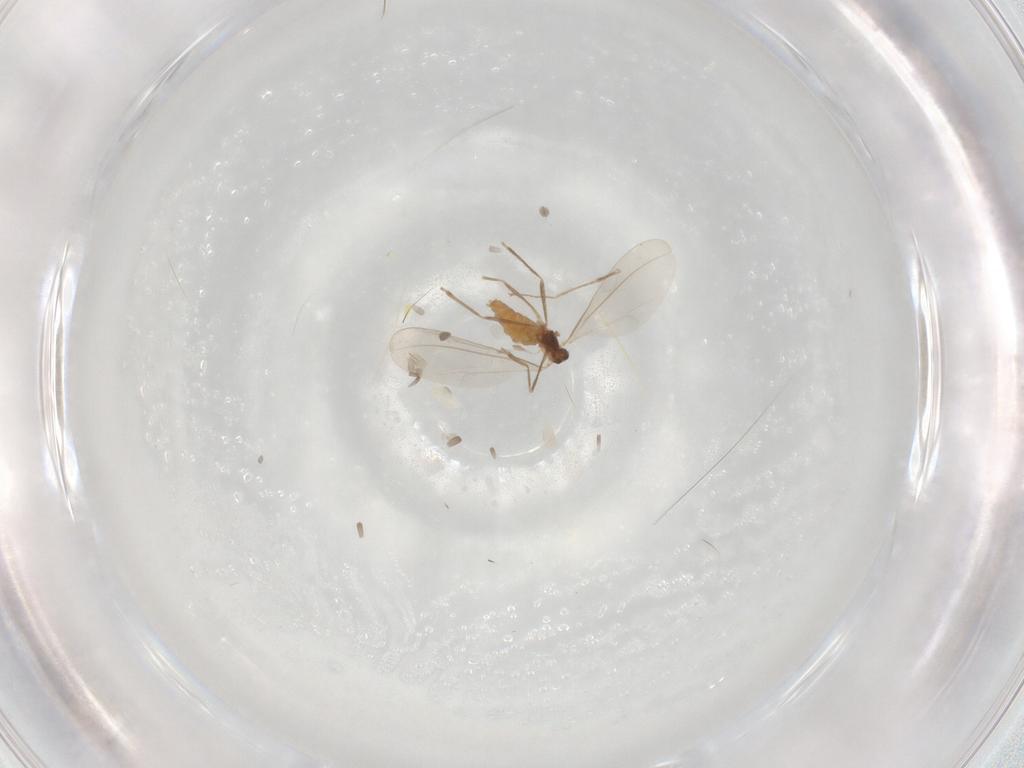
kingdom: Animalia
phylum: Arthropoda
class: Insecta
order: Diptera
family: Cecidomyiidae
